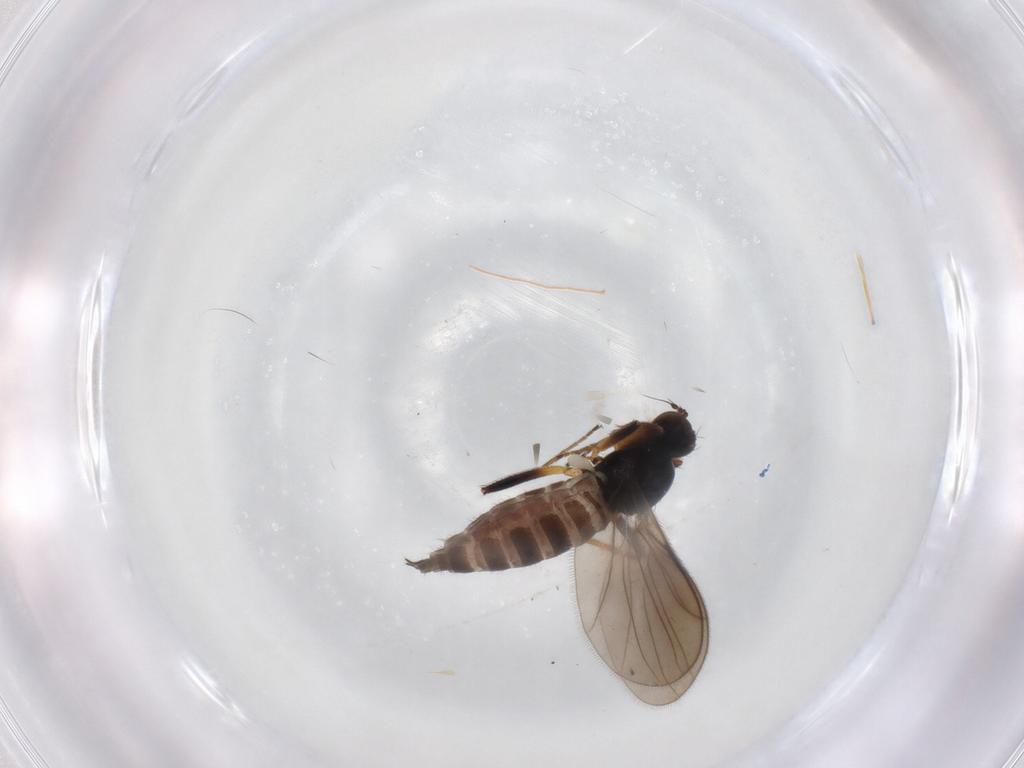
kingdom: Animalia
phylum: Arthropoda
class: Insecta
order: Diptera
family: Hybotidae
